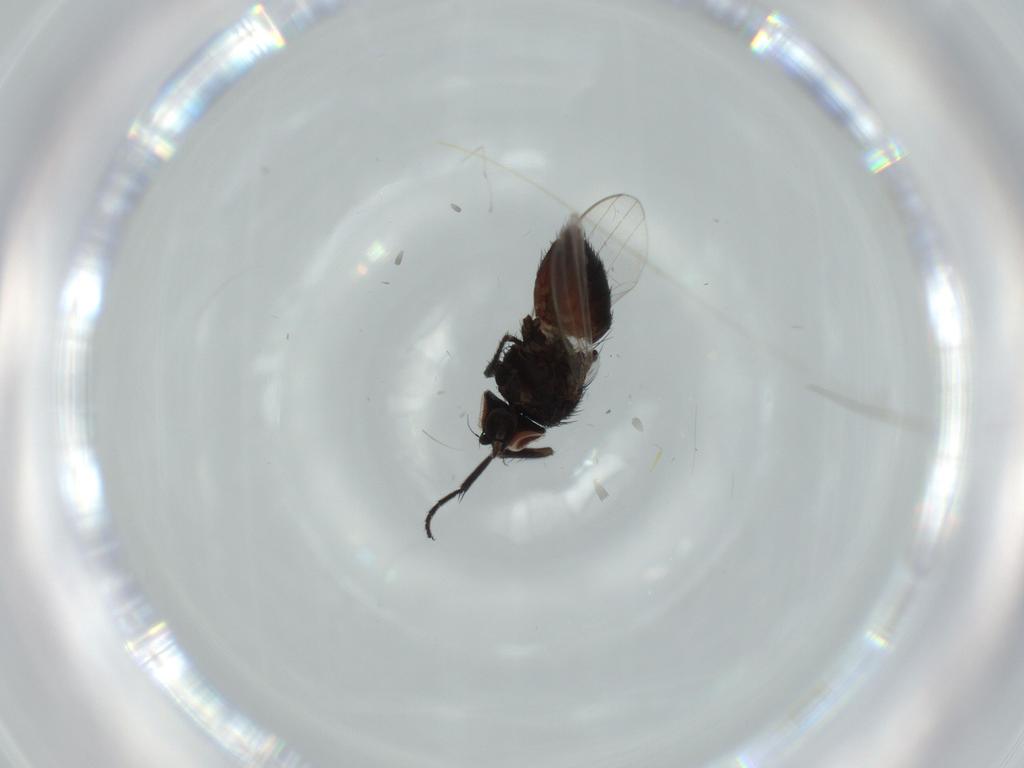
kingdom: Animalia
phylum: Arthropoda
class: Insecta
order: Diptera
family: Milichiidae
